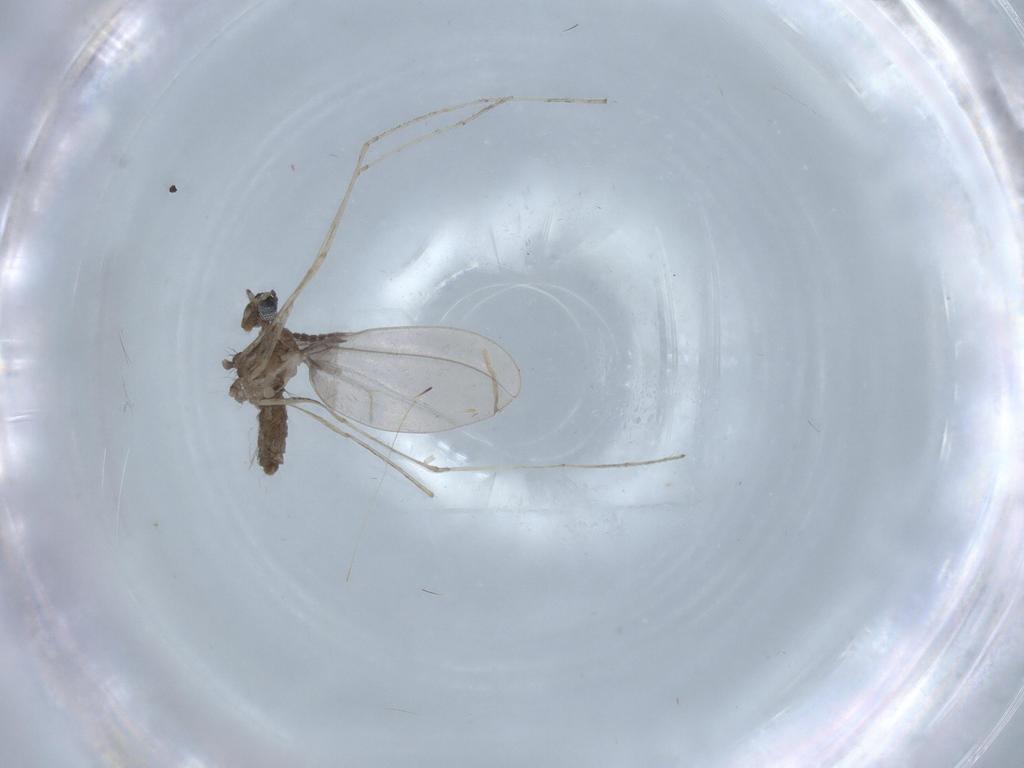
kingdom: Animalia
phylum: Arthropoda
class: Insecta
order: Diptera
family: Cecidomyiidae
